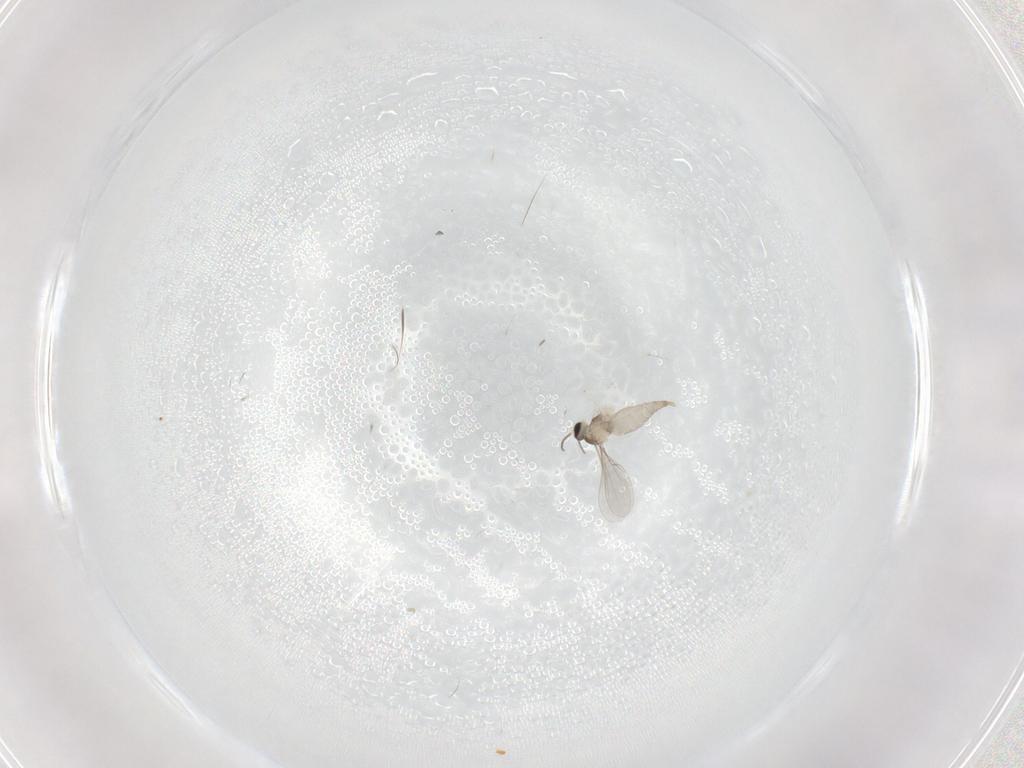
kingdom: Animalia
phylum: Arthropoda
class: Insecta
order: Diptera
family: Cecidomyiidae
